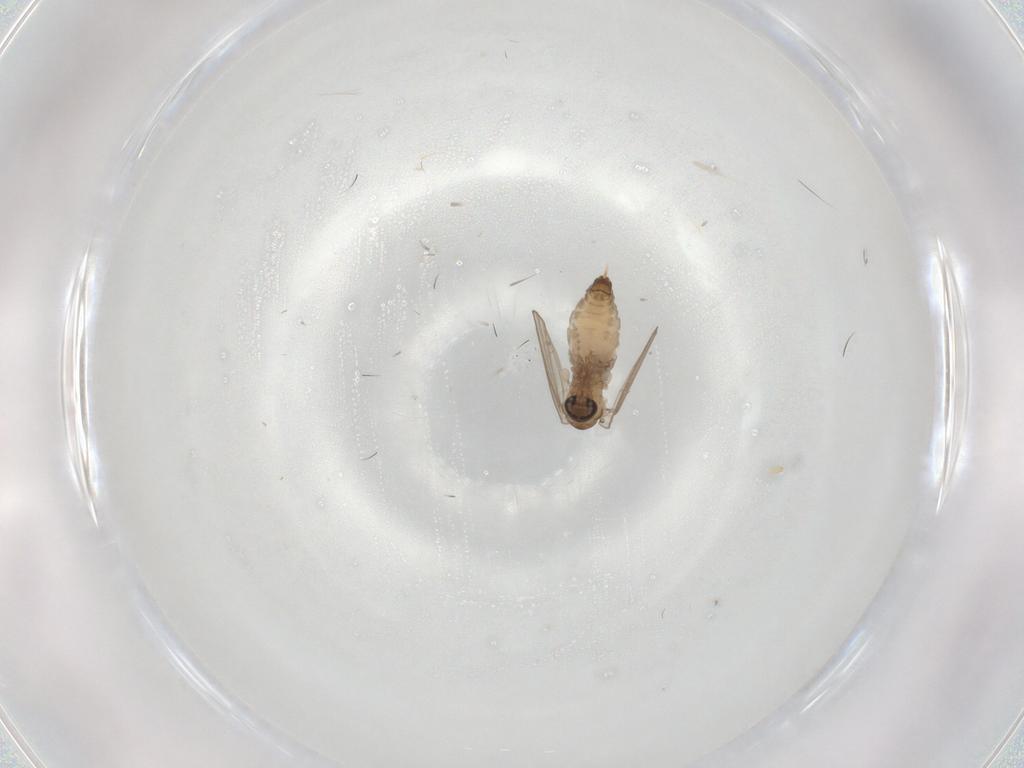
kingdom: Animalia
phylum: Arthropoda
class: Insecta
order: Diptera
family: Psychodidae
